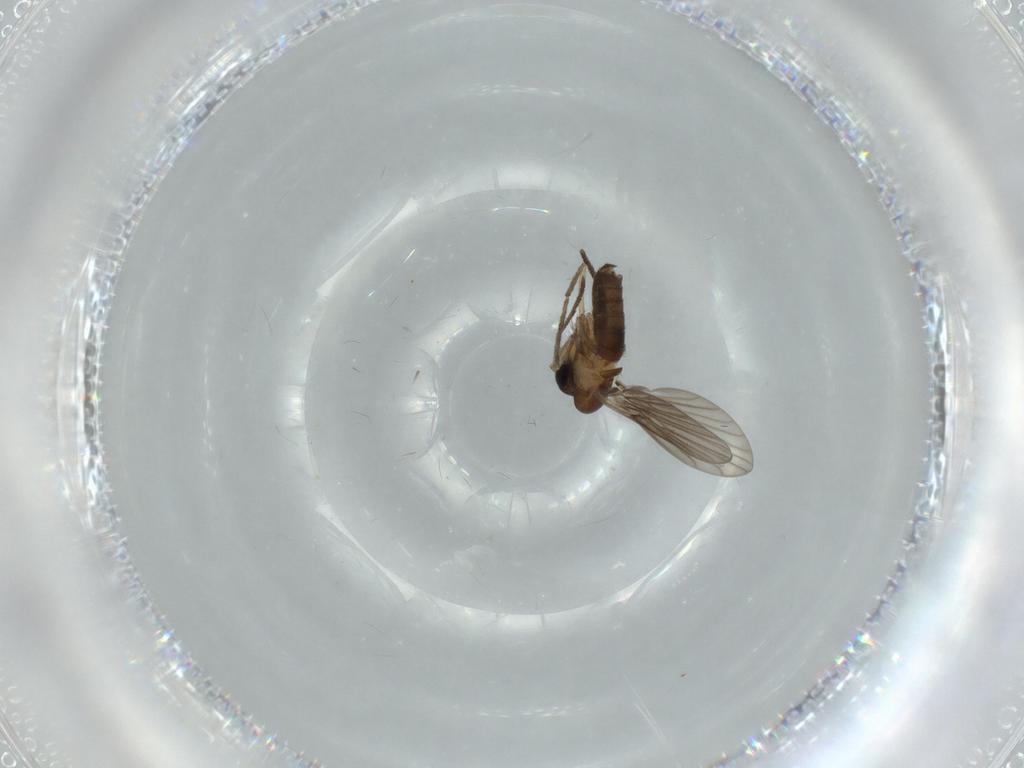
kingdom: Animalia
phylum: Arthropoda
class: Insecta
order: Diptera
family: Psychodidae
